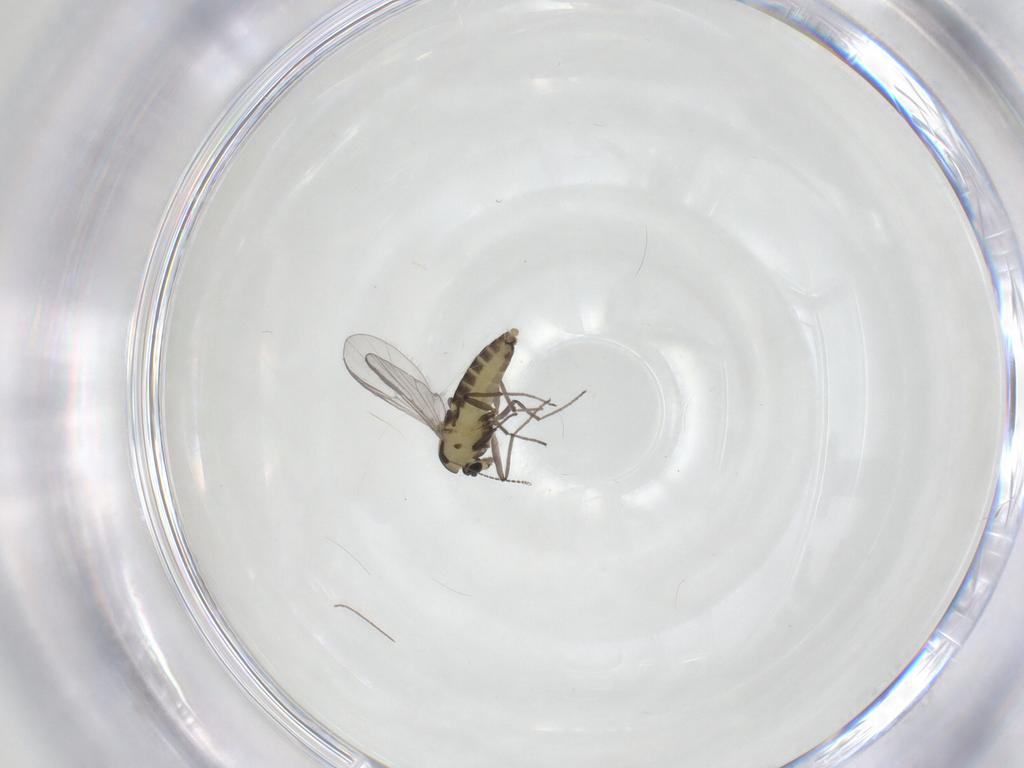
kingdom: Animalia
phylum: Arthropoda
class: Insecta
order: Diptera
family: Chironomidae
